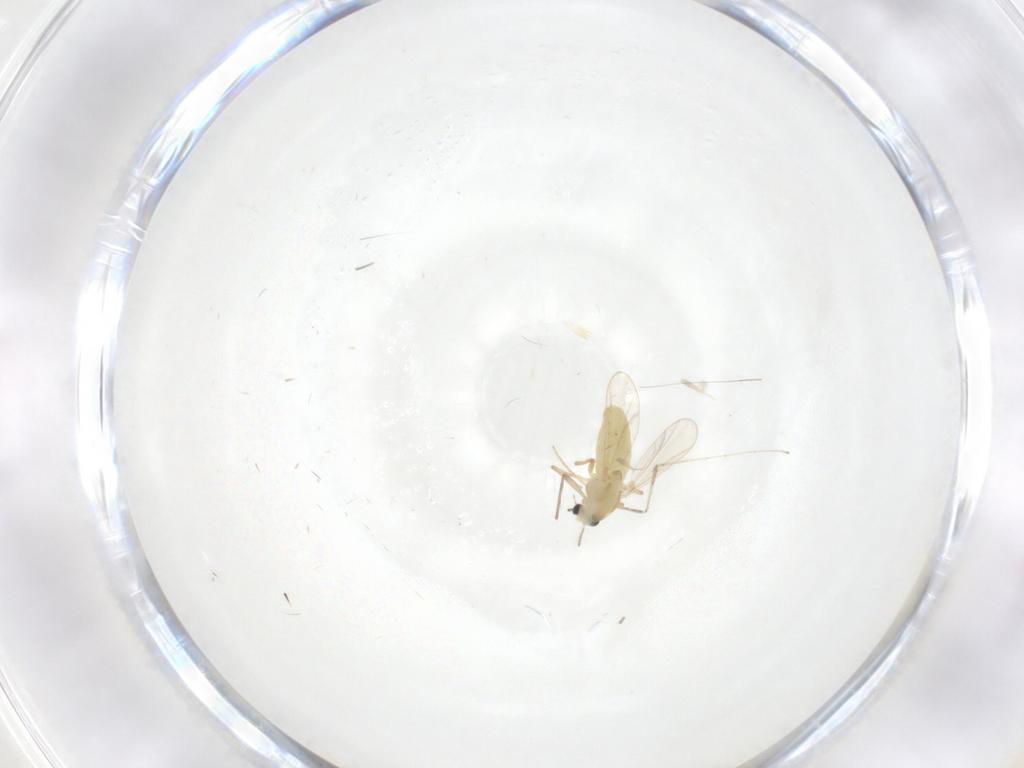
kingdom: Animalia
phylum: Arthropoda
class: Insecta
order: Diptera
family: Chironomidae
